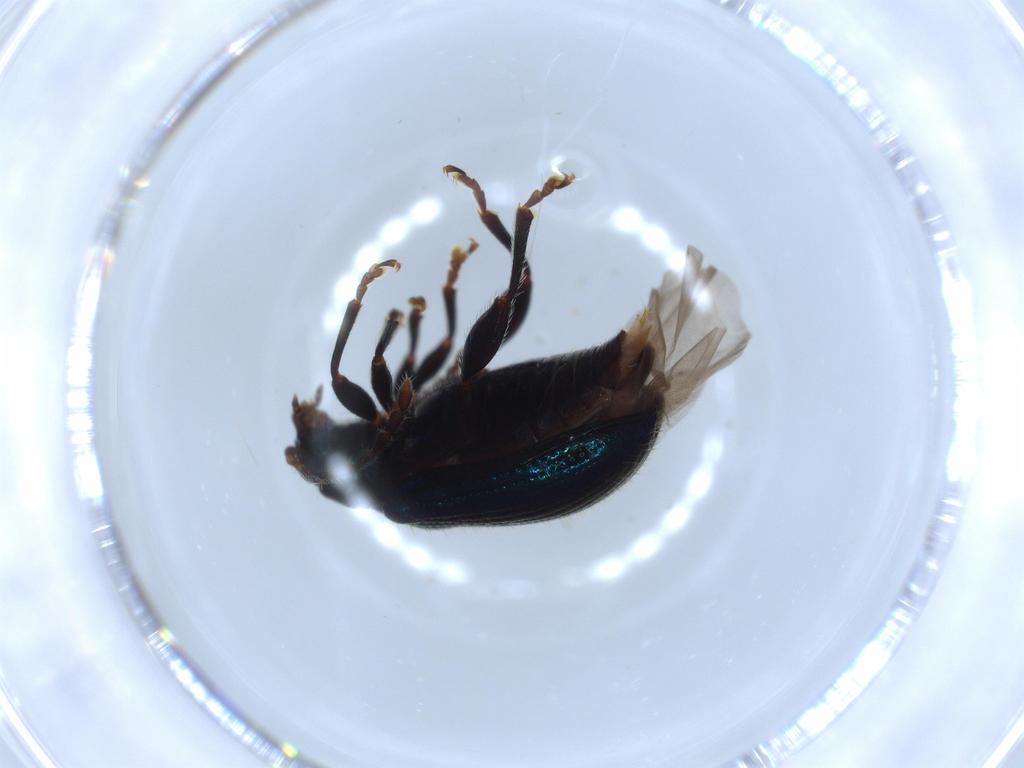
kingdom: Animalia
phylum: Arthropoda
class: Insecta
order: Coleoptera
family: Chrysomelidae
